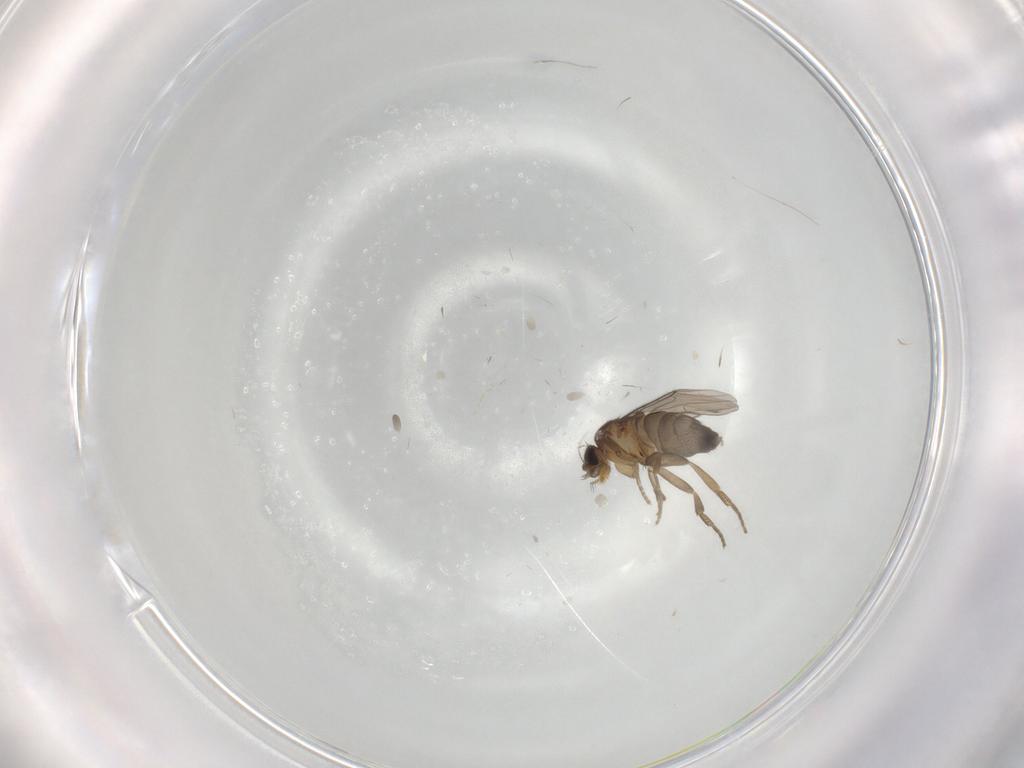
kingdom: Animalia
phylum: Arthropoda
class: Insecta
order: Diptera
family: Phoridae
